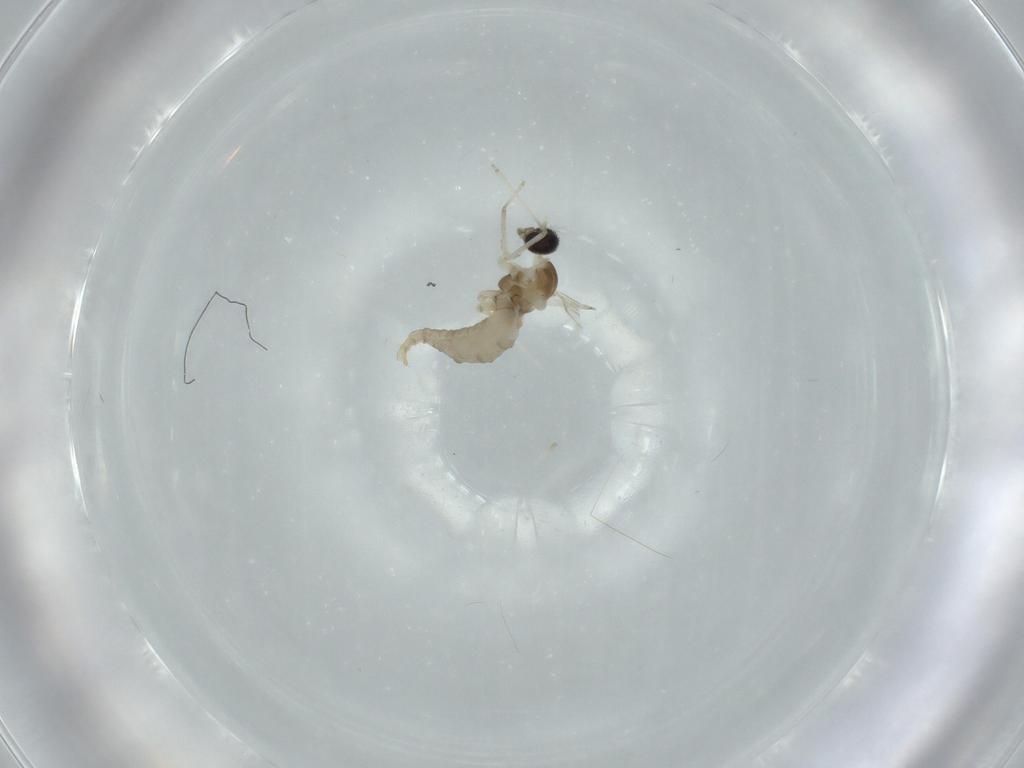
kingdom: Animalia
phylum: Arthropoda
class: Insecta
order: Diptera
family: Cecidomyiidae
